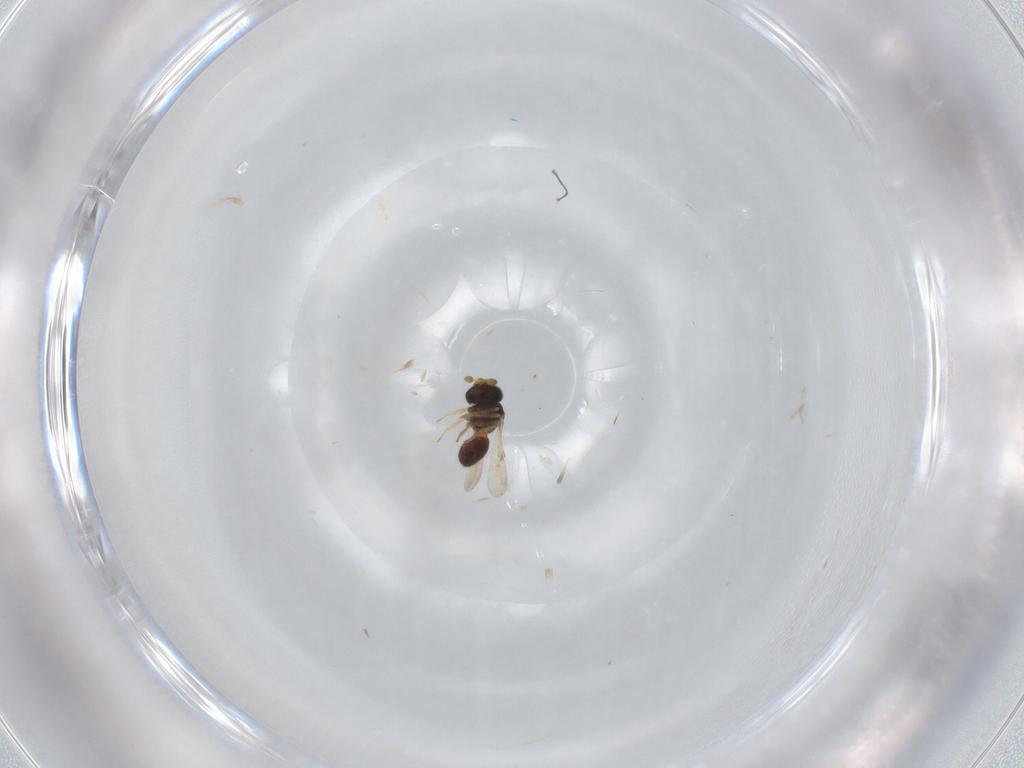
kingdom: Animalia
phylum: Arthropoda
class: Insecta
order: Hymenoptera
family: Scelionidae
